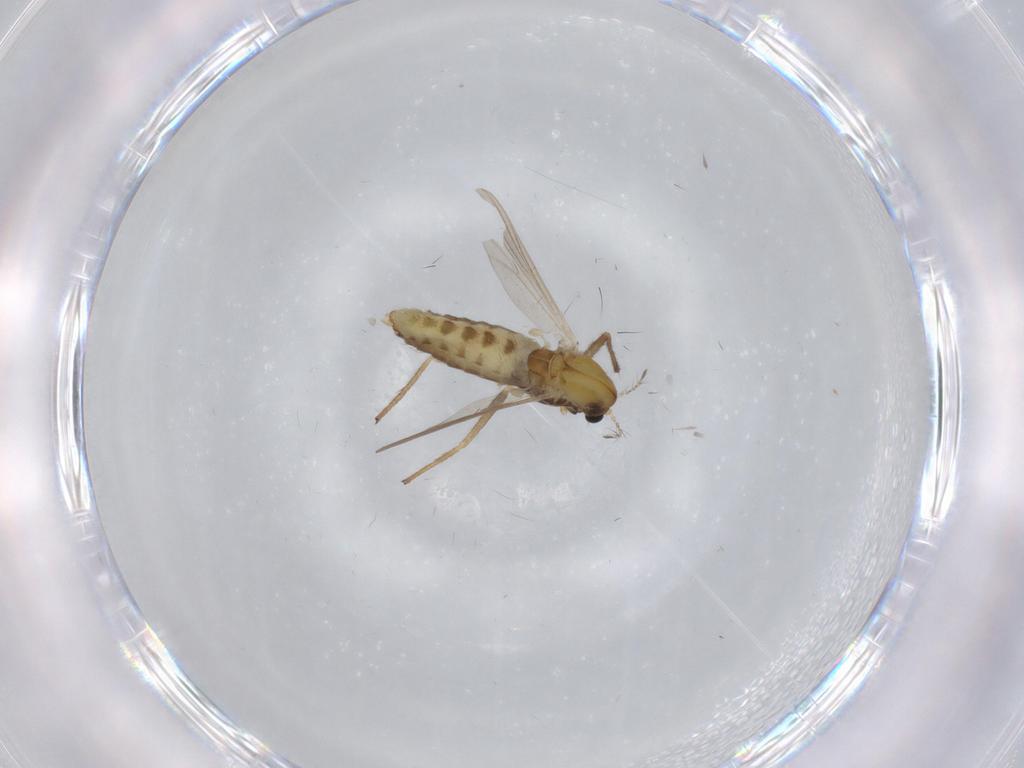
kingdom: Animalia
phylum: Arthropoda
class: Insecta
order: Diptera
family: Chironomidae
